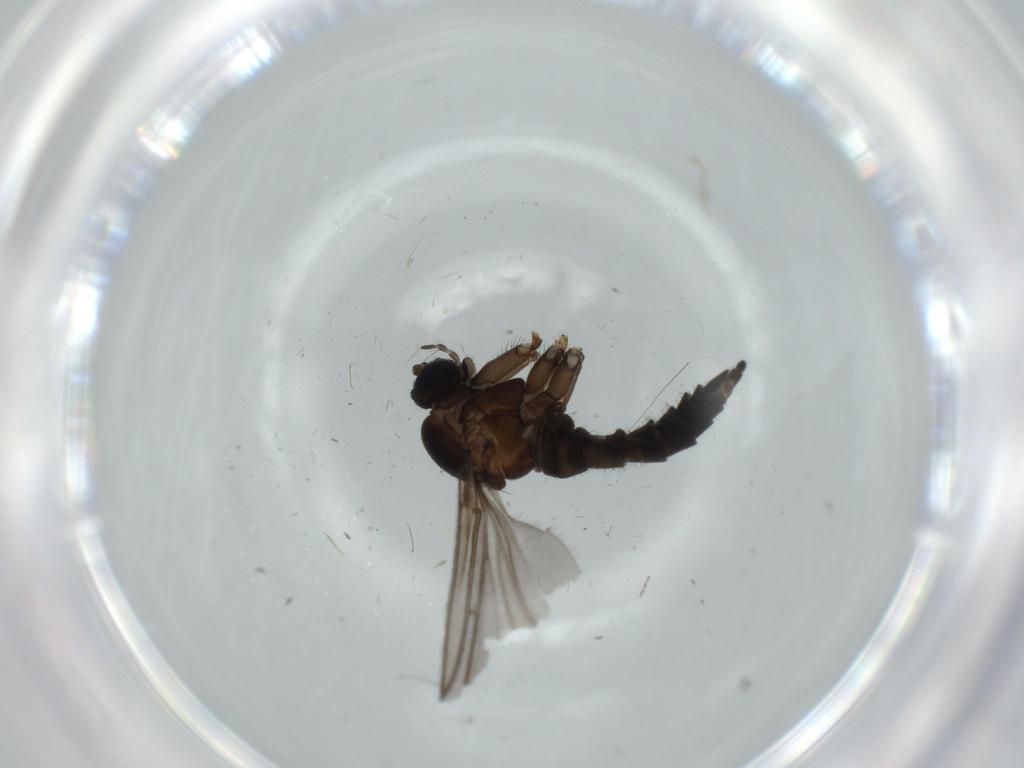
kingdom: Animalia
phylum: Arthropoda
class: Insecta
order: Diptera
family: Sciaridae
